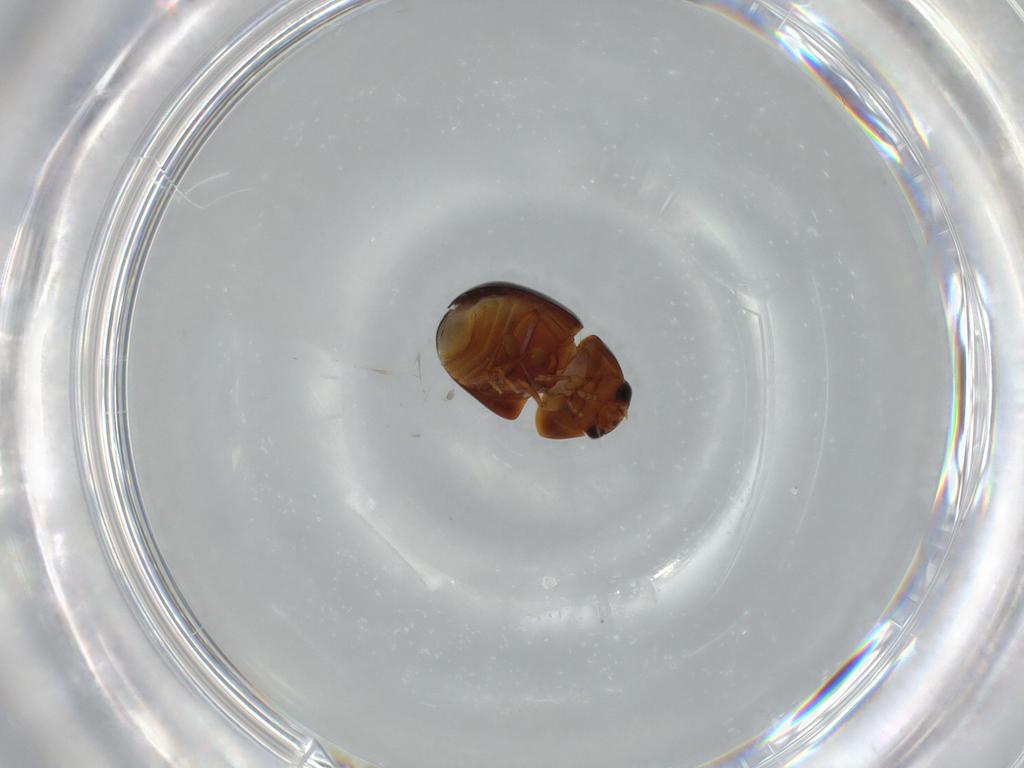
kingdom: Animalia
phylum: Arthropoda
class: Insecta
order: Coleoptera
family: Chrysomelidae
